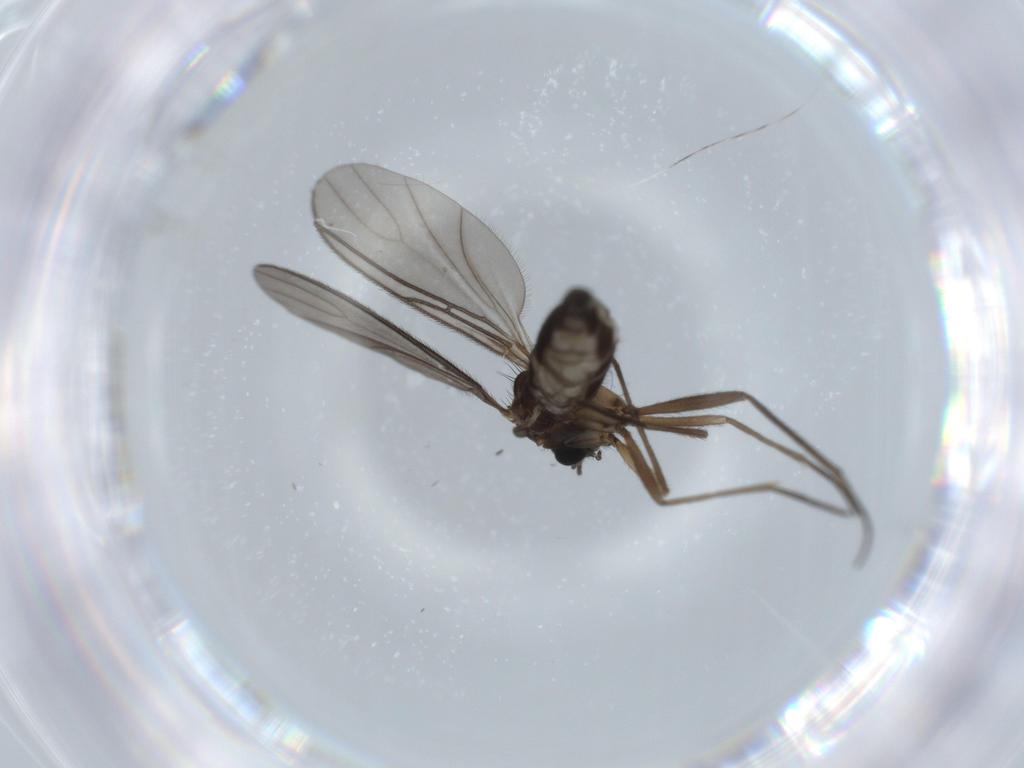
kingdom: Animalia
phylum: Arthropoda
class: Insecta
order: Diptera
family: Sciaridae
